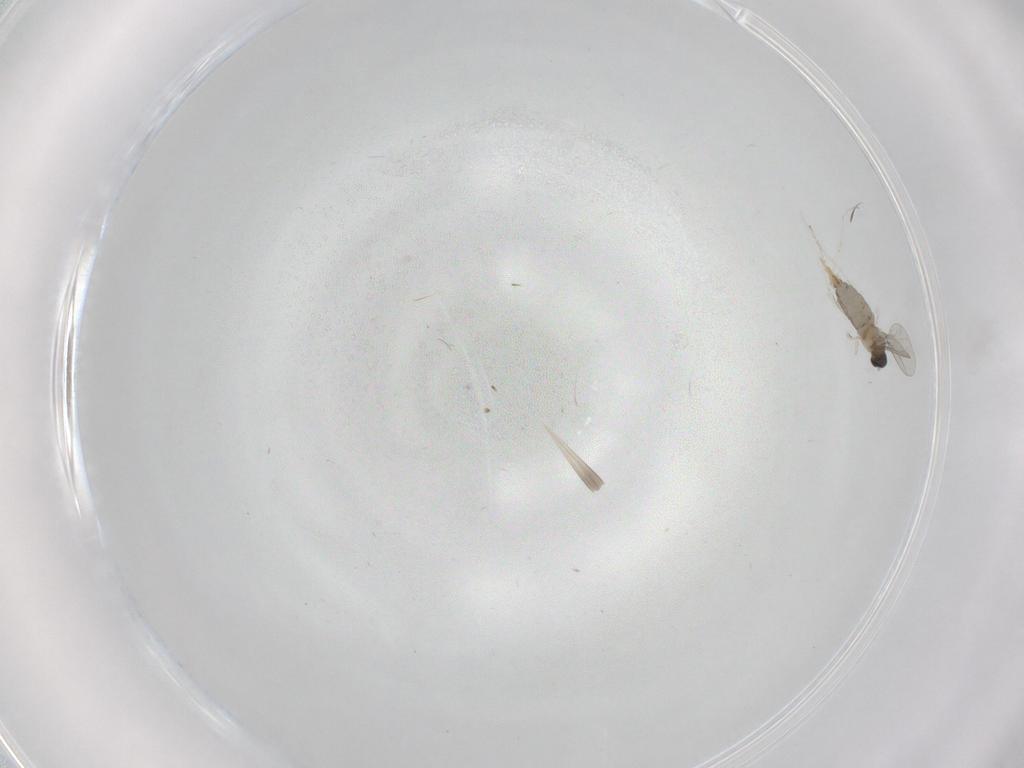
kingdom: Animalia
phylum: Arthropoda
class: Insecta
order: Diptera
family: Cecidomyiidae
